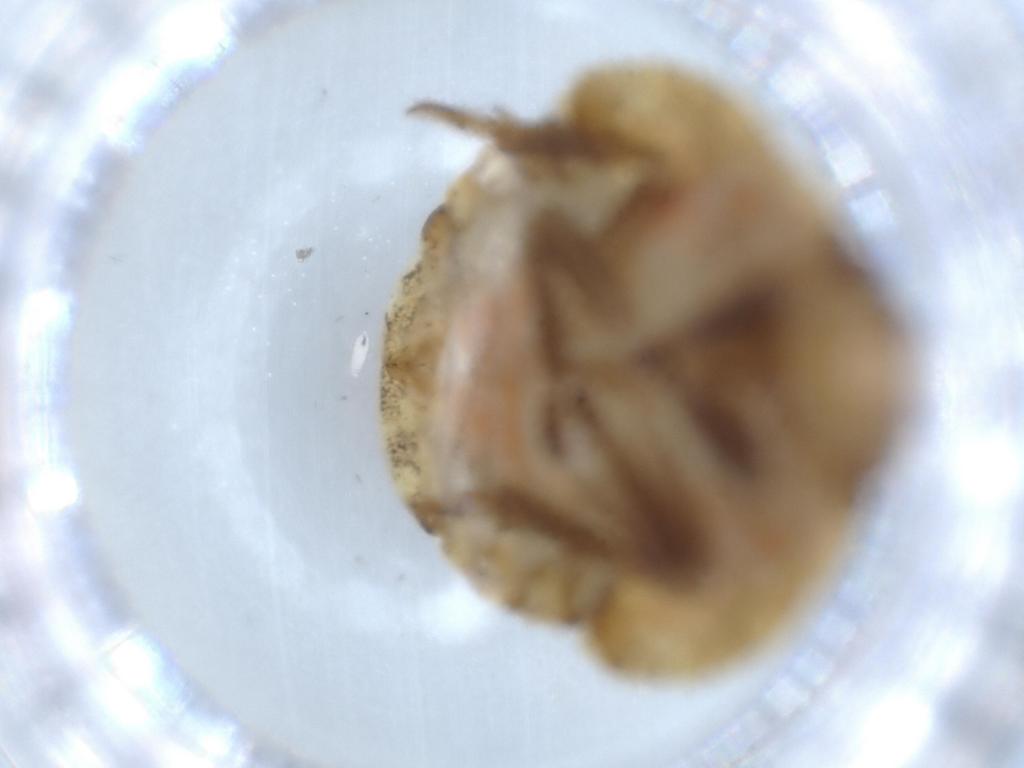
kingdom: Animalia
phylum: Arthropoda
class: Insecta
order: Hemiptera
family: Flatidae
